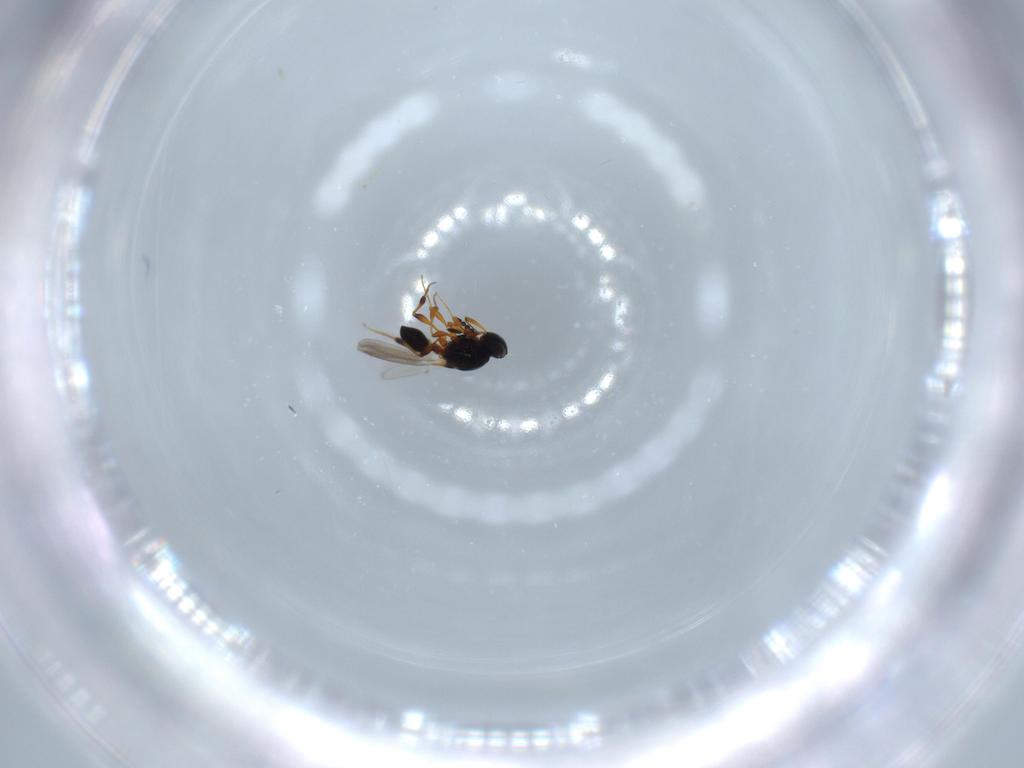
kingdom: Animalia
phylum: Arthropoda
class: Insecta
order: Hymenoptera
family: Platygastridae
